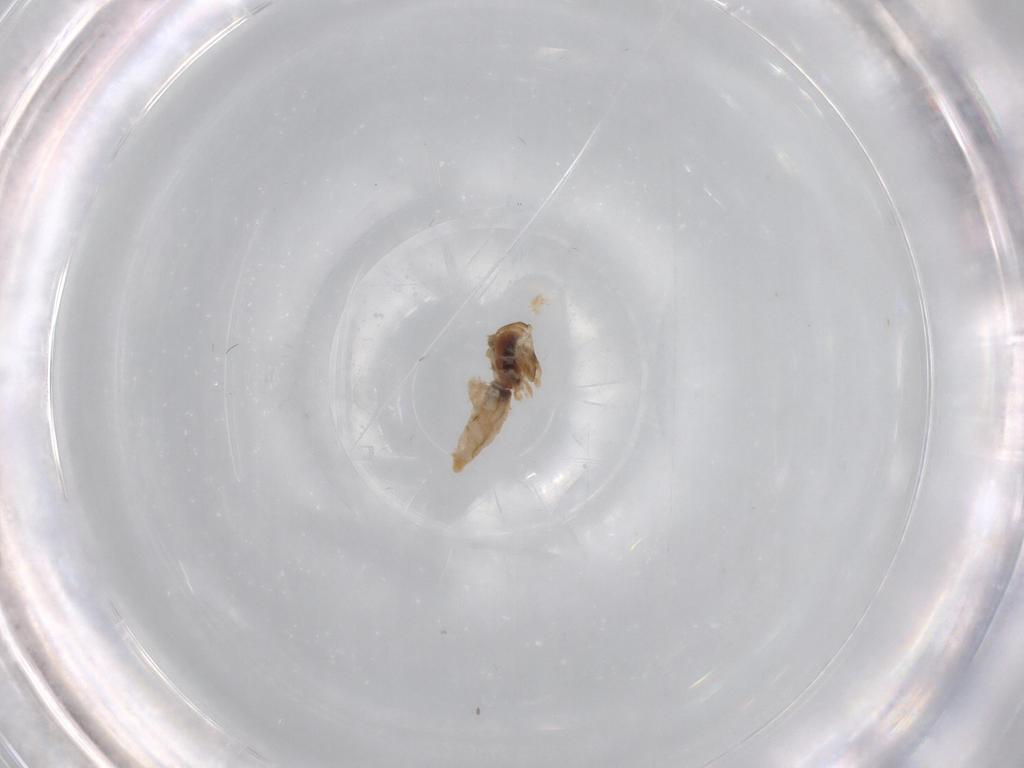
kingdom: Animalia
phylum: Arthropoda
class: Insecta
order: Diptera
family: Cecidomyiidae
